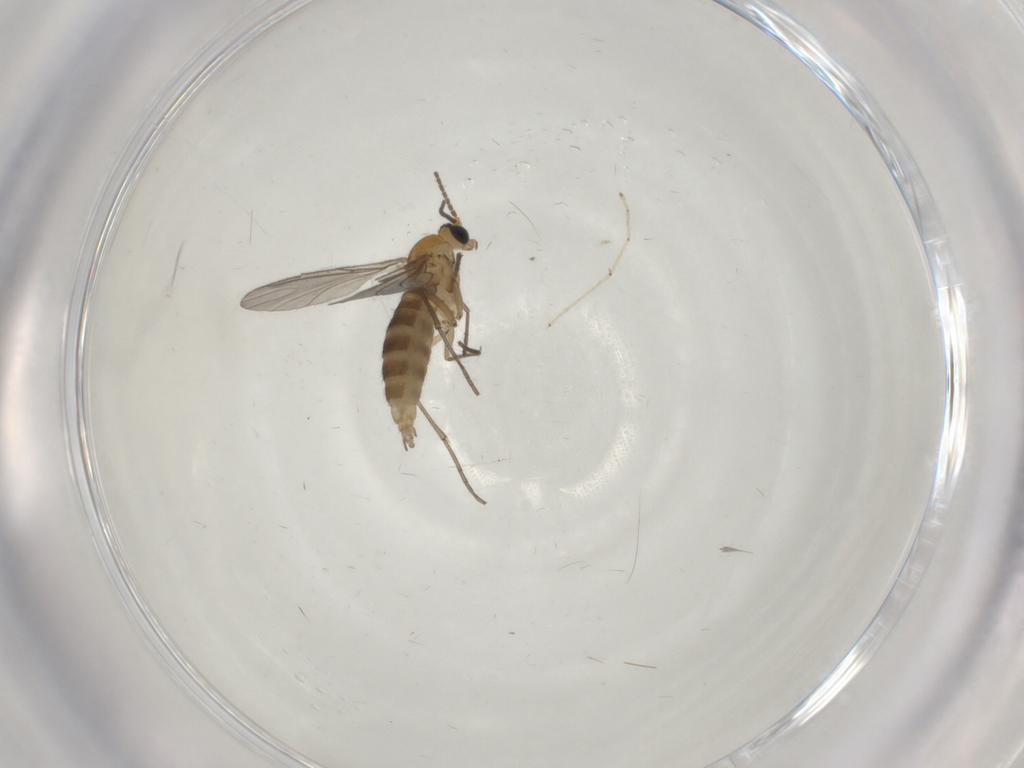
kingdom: Animalia
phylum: Arthropoda
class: Insecta
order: Diptera
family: Sciaridae
